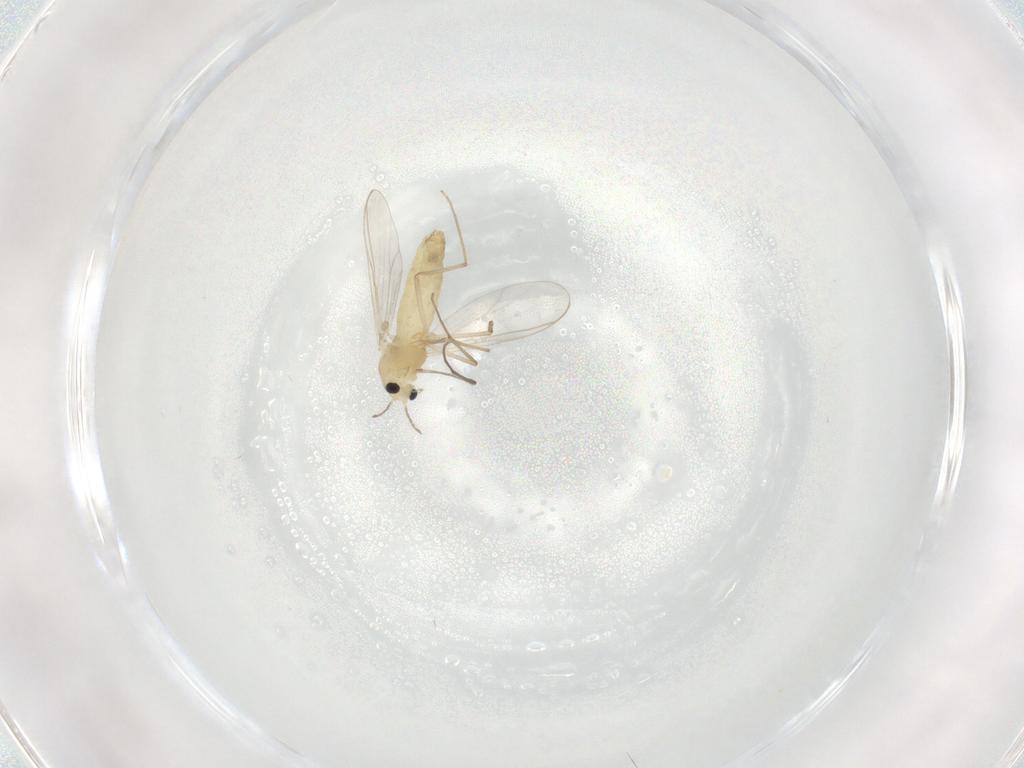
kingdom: Animalia
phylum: Arthropoda
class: Insecta
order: Diptera
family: Chironomidae
